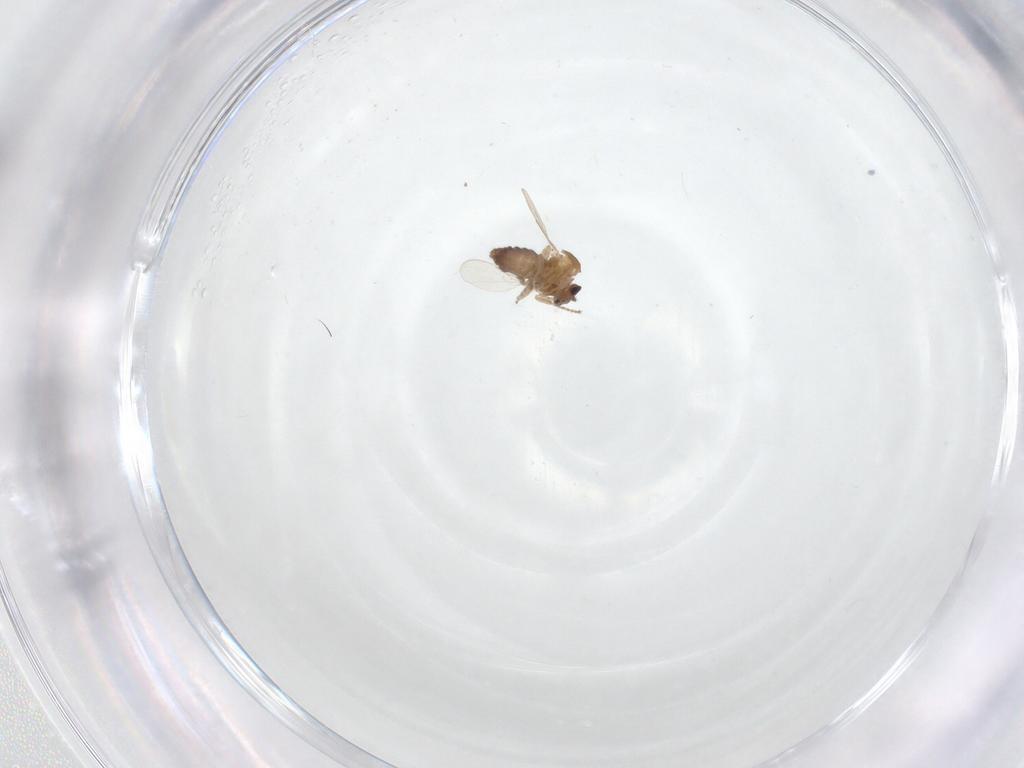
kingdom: Animalia
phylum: Arthropoda
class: Insecta
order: Diptera
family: Ceratopogonidae
